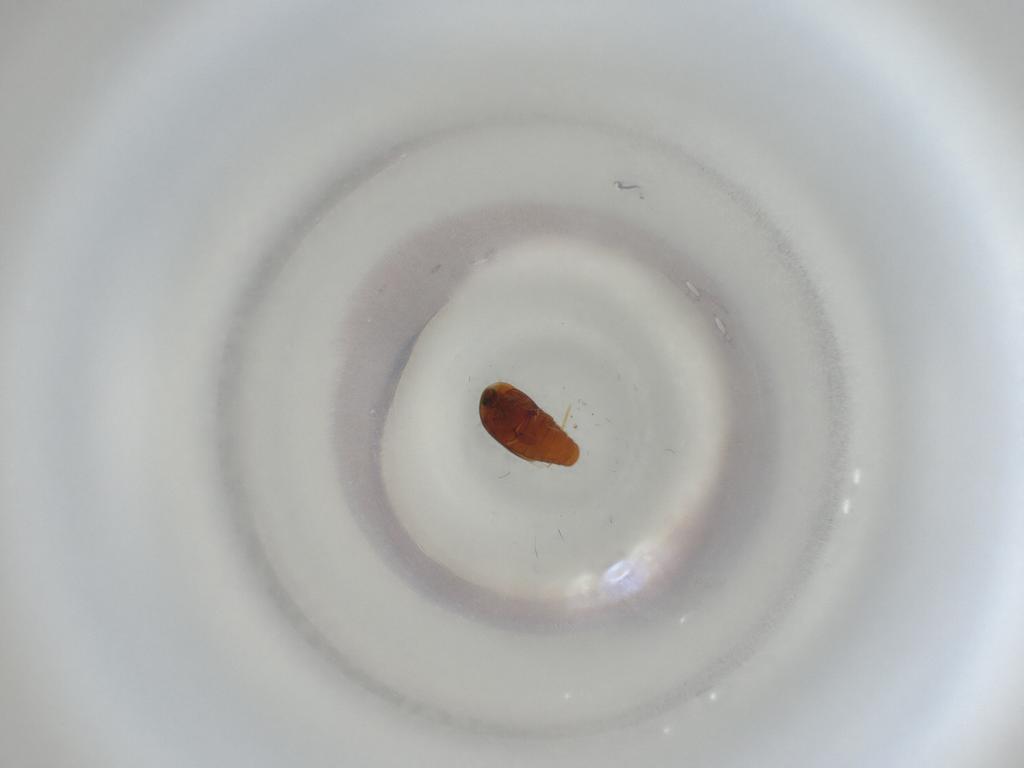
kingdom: Animalia
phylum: Arthropoda
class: Insecta
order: Coleoptera
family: Corylophidae
